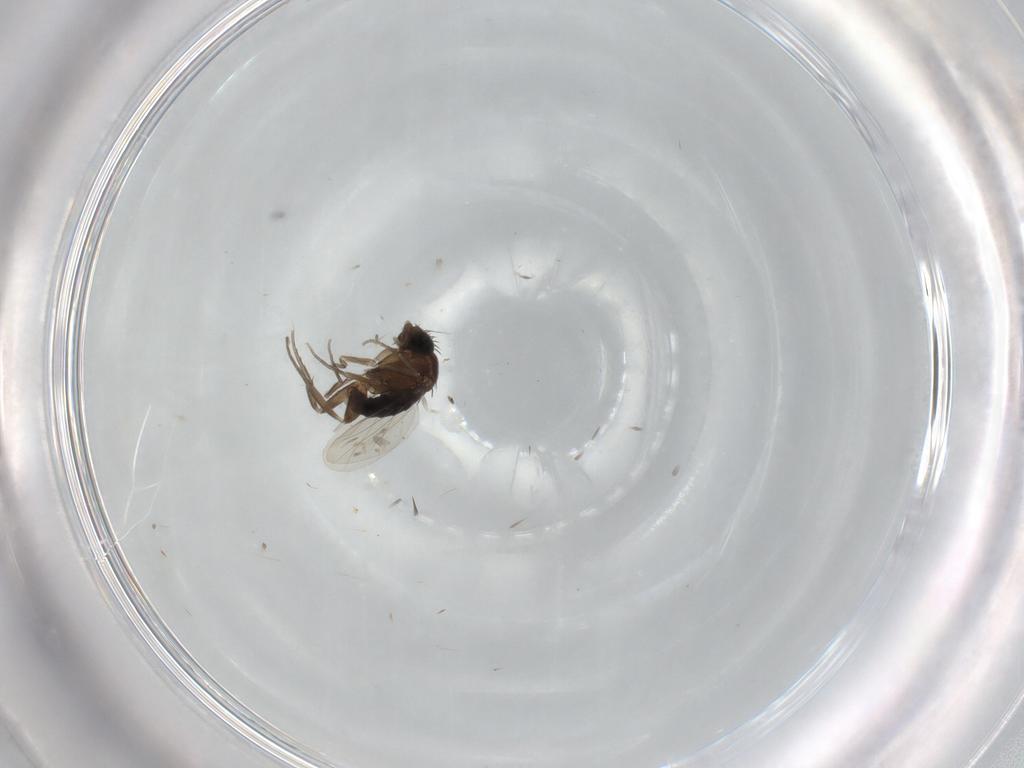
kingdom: Animalia
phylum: Arthropoda
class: Insecta
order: Diptera
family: Phoridae
